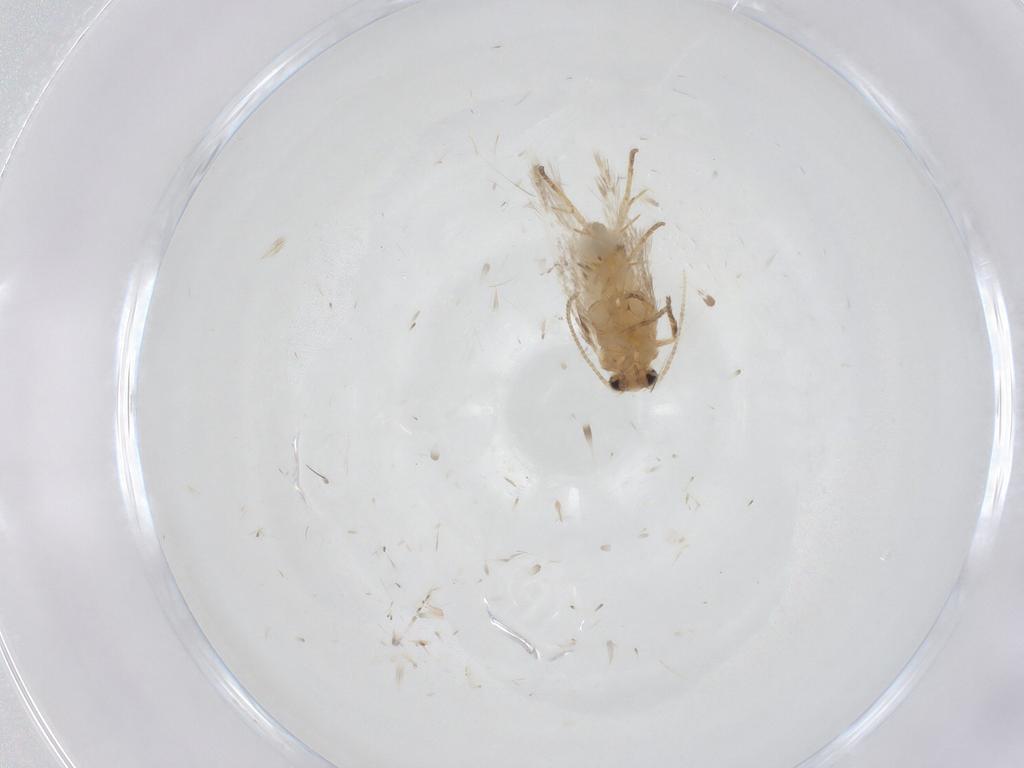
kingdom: Animalia
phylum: Arthropoda
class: Insecta
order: Lepidoptera
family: Nepticulidae
